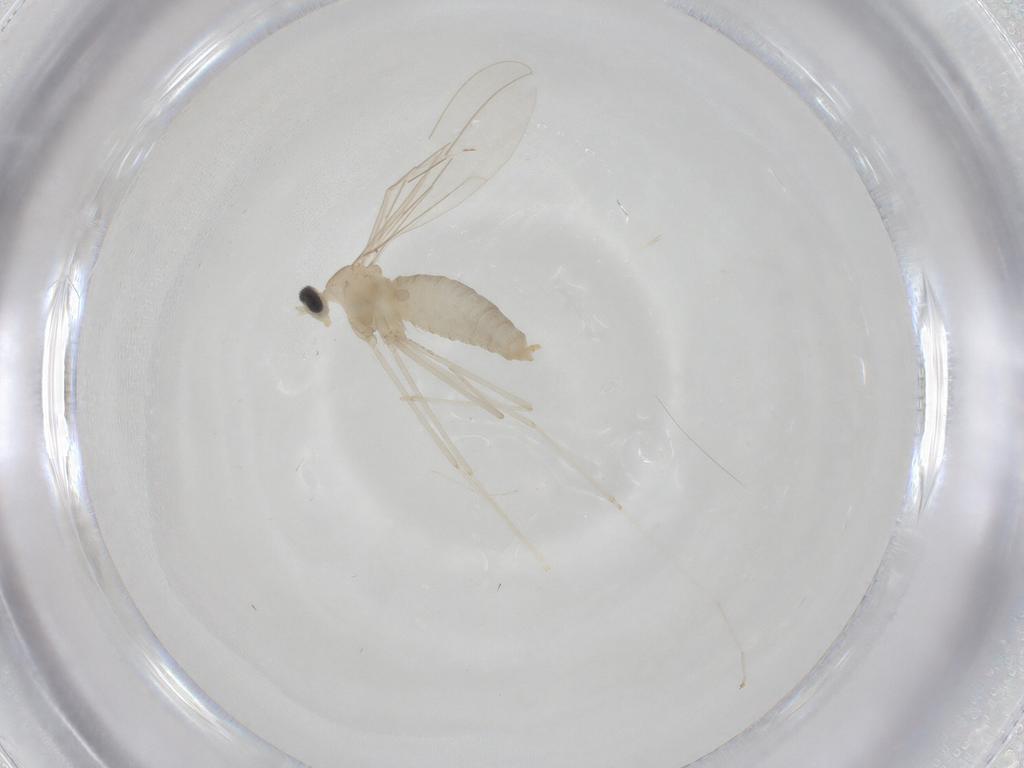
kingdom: Animalia
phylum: Arthropoda
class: Insecta
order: Diptera
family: Cecidomyiidae
